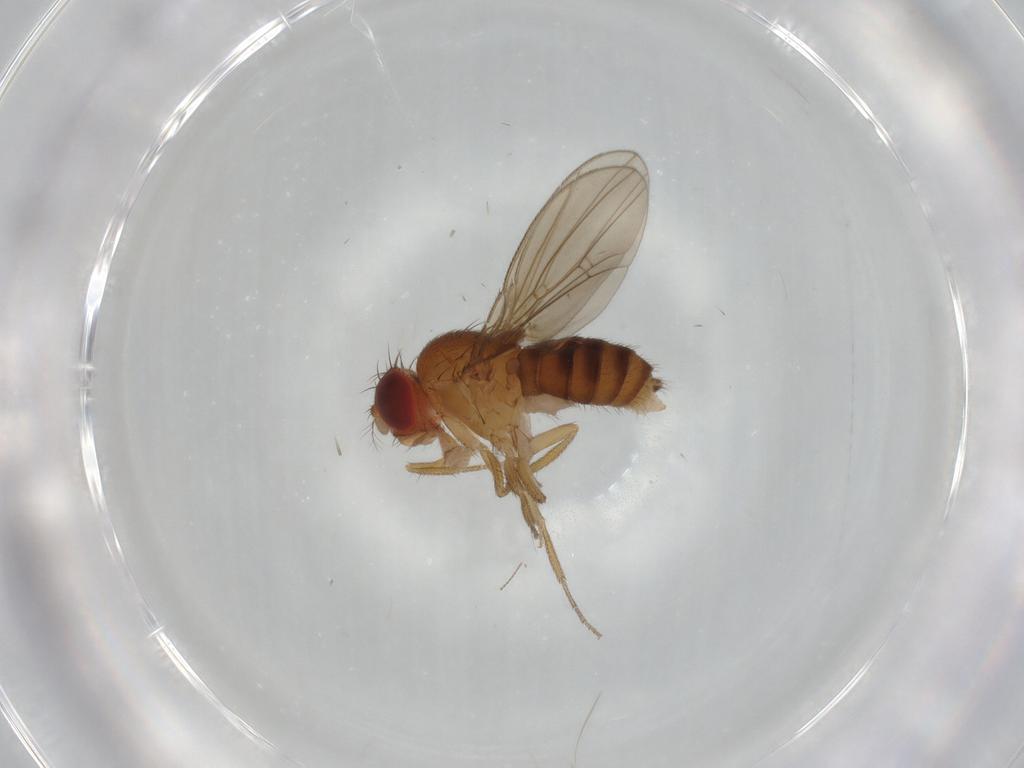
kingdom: Animalia
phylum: Arthropoda
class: Insecta
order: Diptera
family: Drosophilidae
